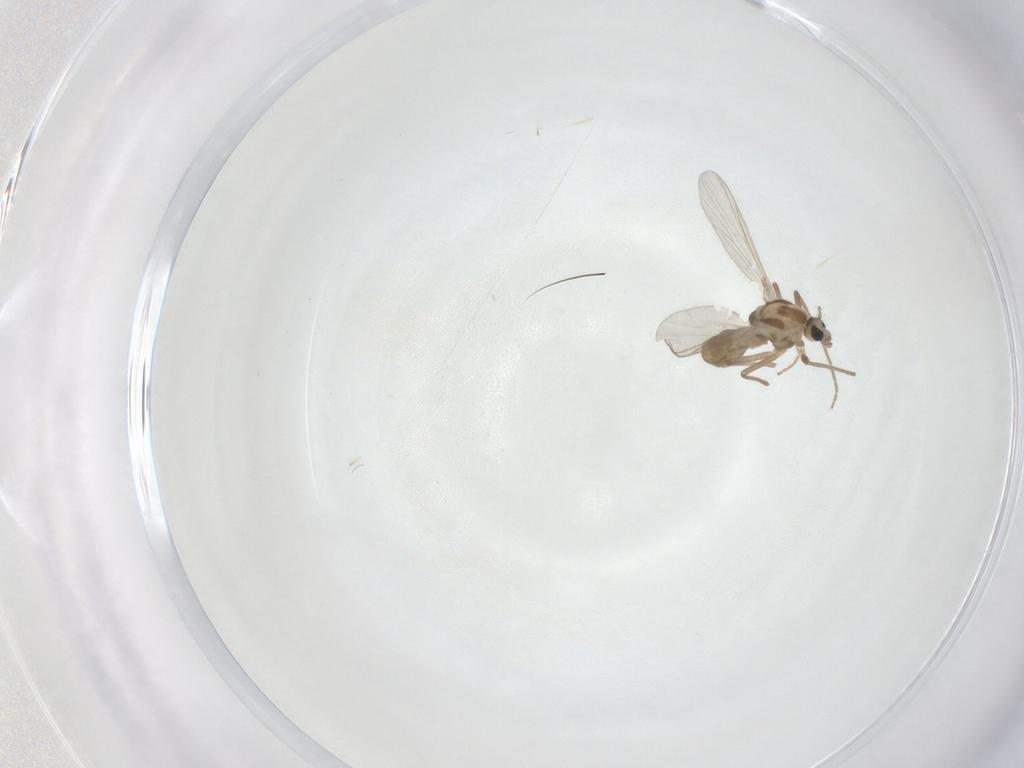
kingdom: Animalia
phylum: Arthropoda
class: Insecta
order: Diptera
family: Chironomidae
